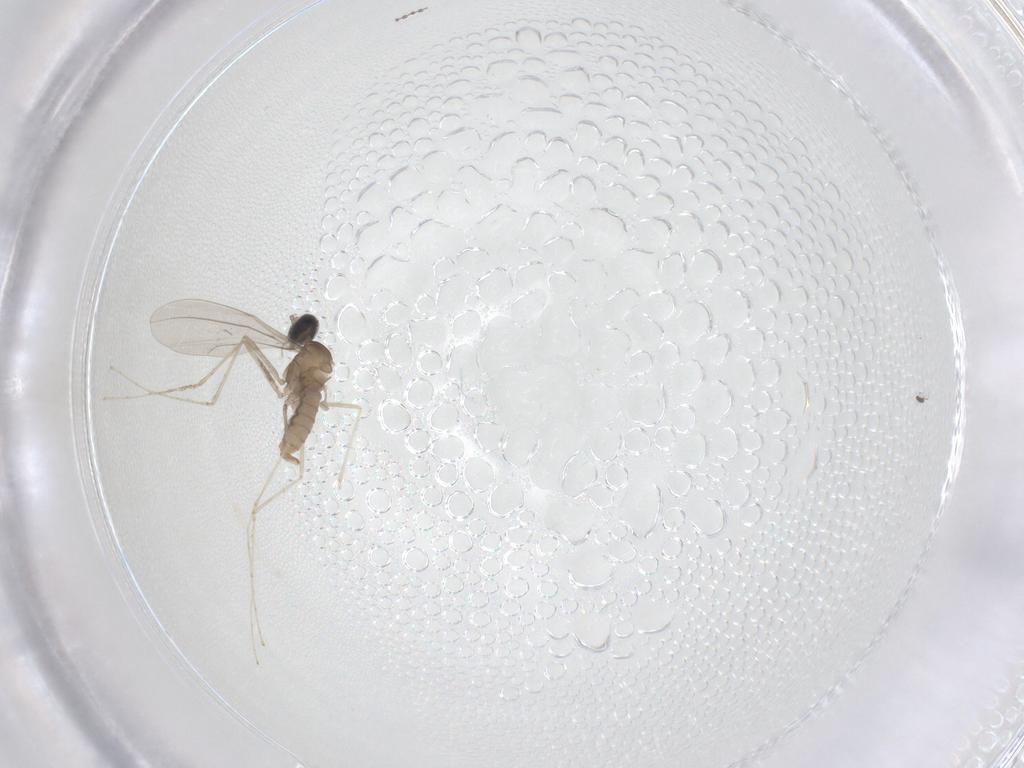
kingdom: Animalia
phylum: Arthropoda
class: Insecta
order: Diptera
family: Cecidomyiidae
